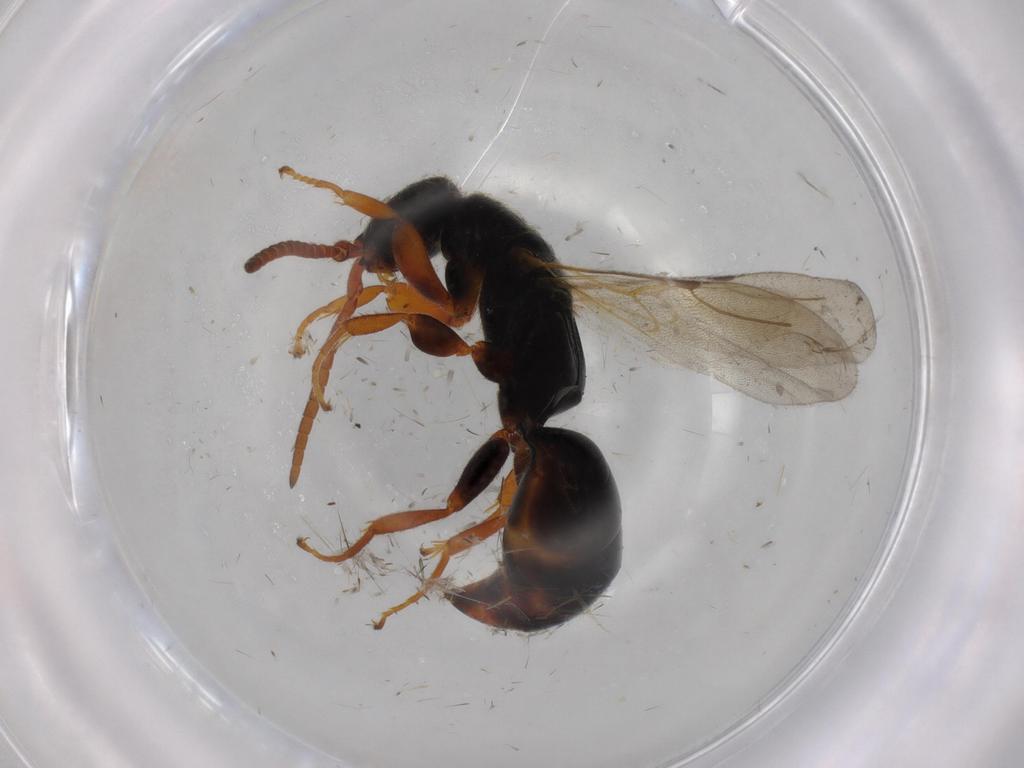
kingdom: Animalia
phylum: Arthropoda
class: Insecta
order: Hymenoptera
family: Bethylidae
